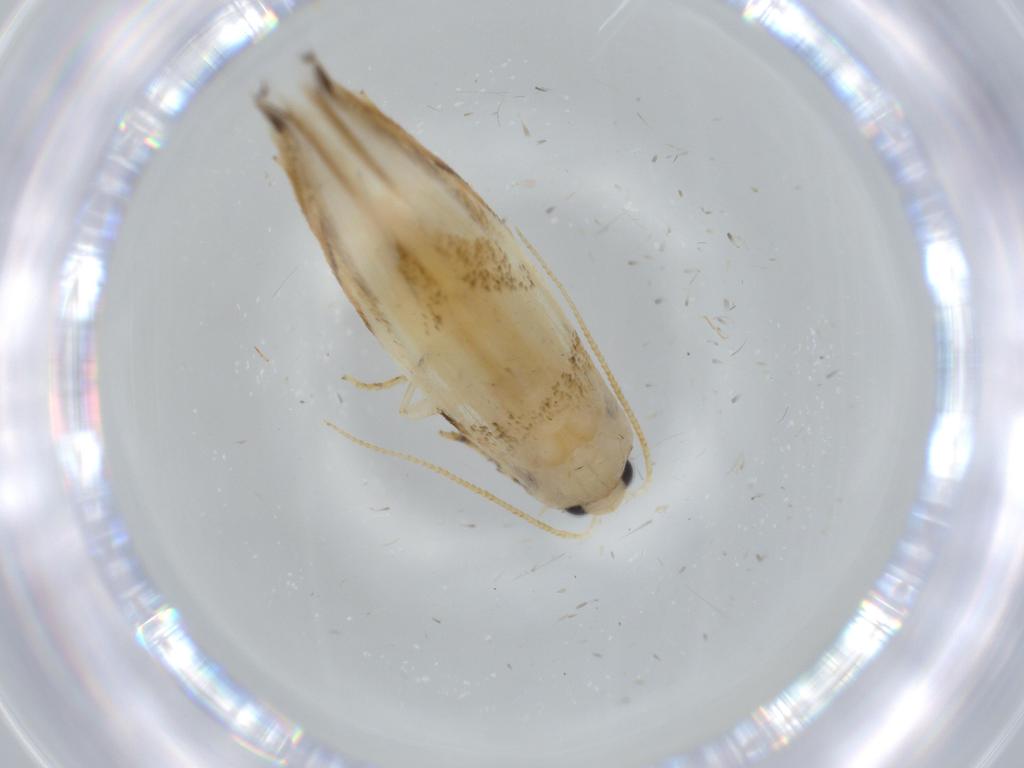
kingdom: Animalia
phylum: Arthropoda
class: Insecta
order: Lepidoptera
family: Tineidae
